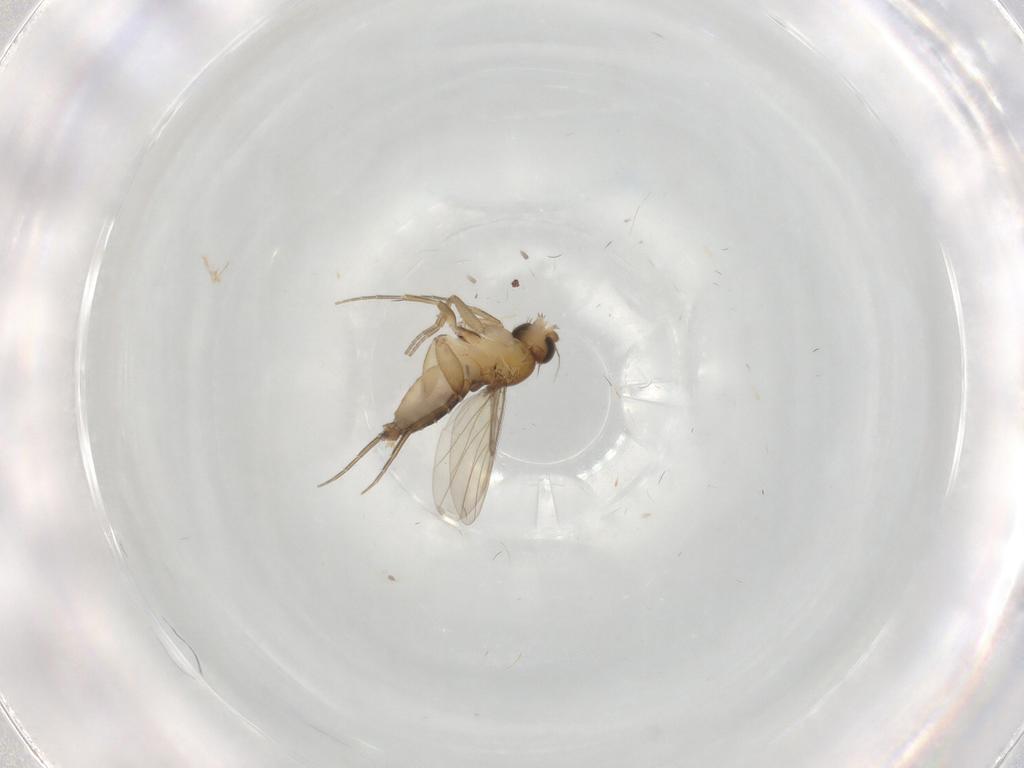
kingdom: Animalia
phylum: Arthropoda
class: Insecta
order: Diptera
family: Phoridae
